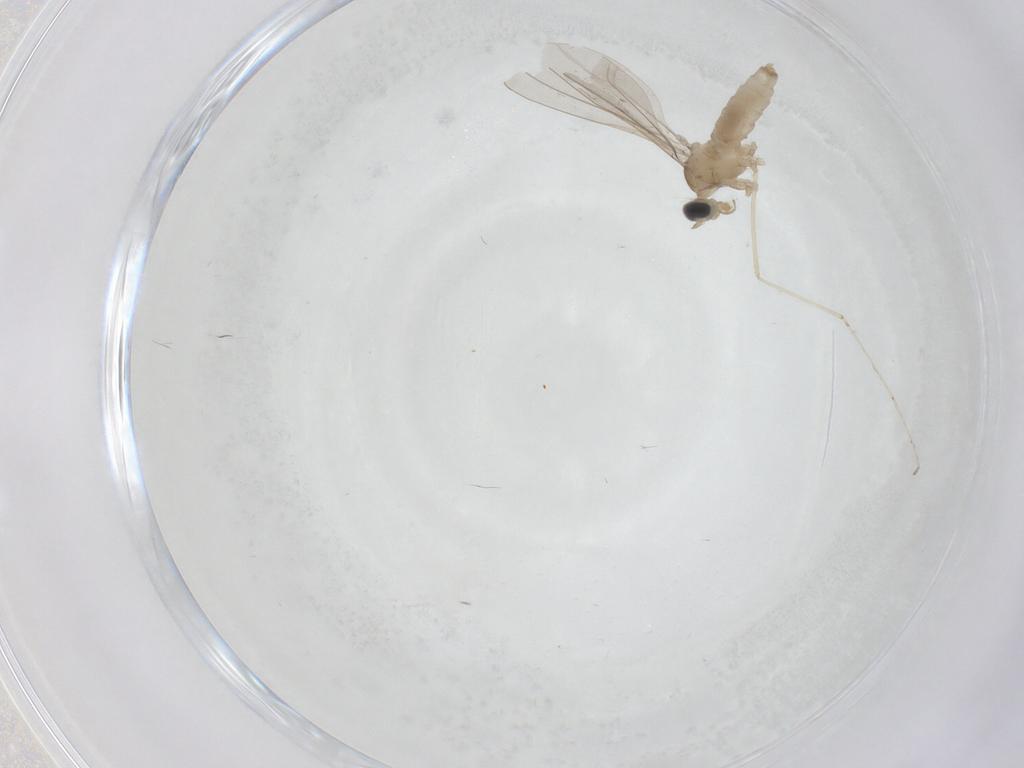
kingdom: Animalia
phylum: Arthropoda
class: Insecta
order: Diptera
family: Cecidomyiidae
